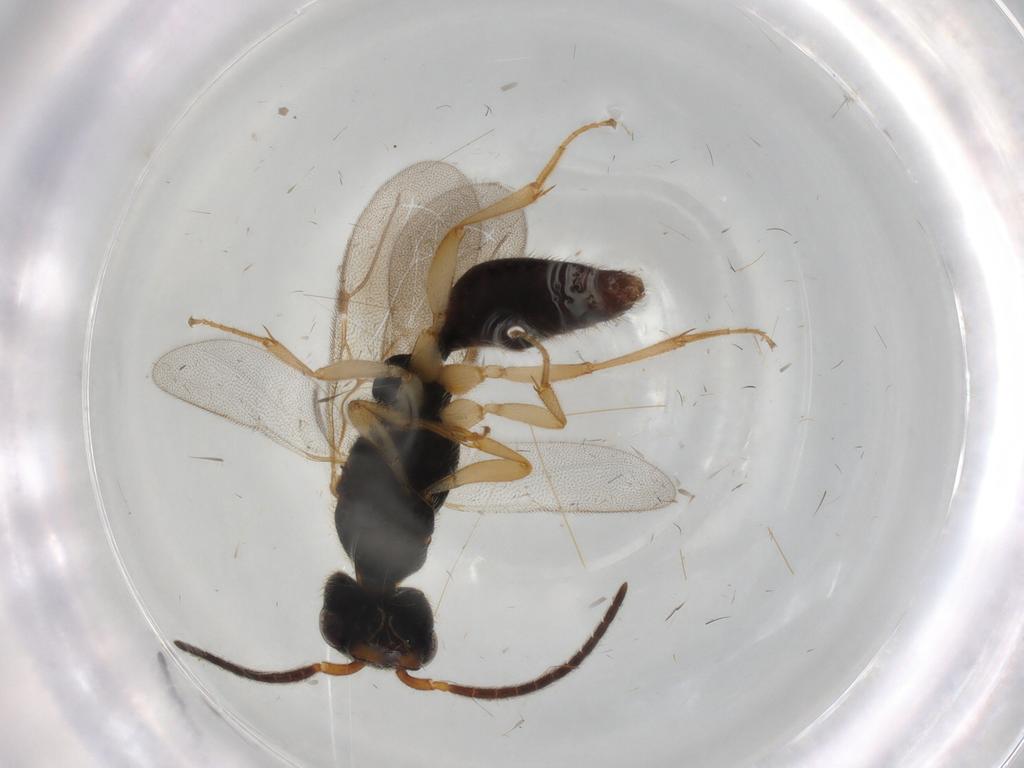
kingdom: Animalia
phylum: Arthropoda
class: Insecta
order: Hymenoptera
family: Bethylidae
